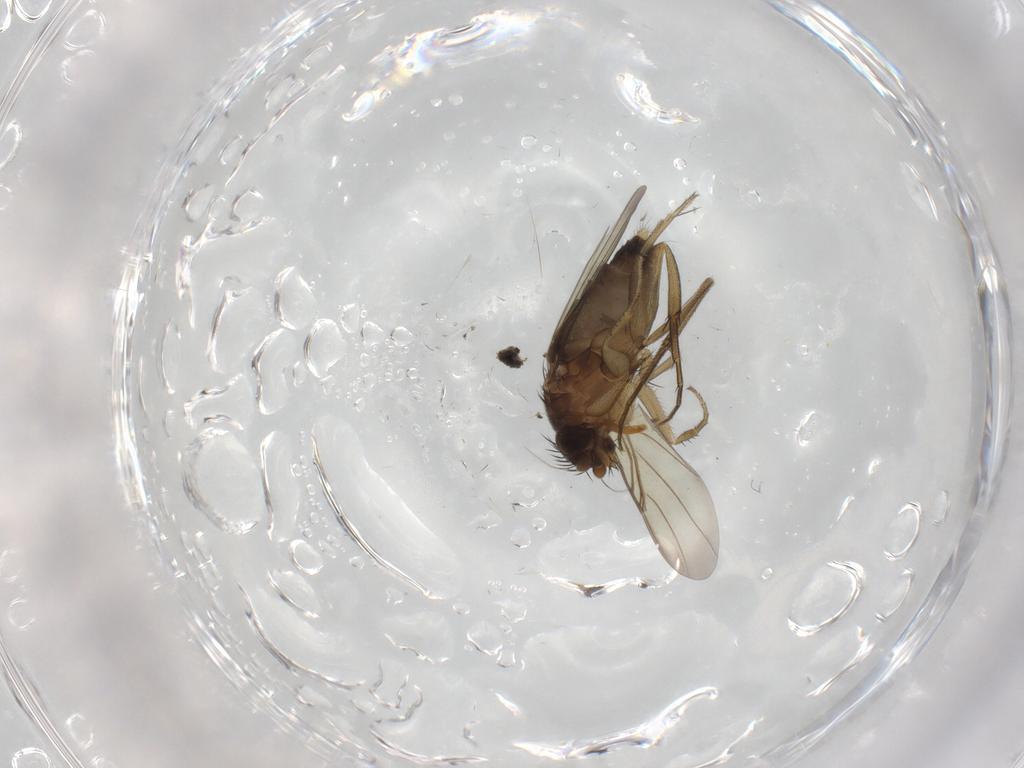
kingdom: Animalia
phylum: Arthropoda
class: Insecta
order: Diptera
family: Phoridae
